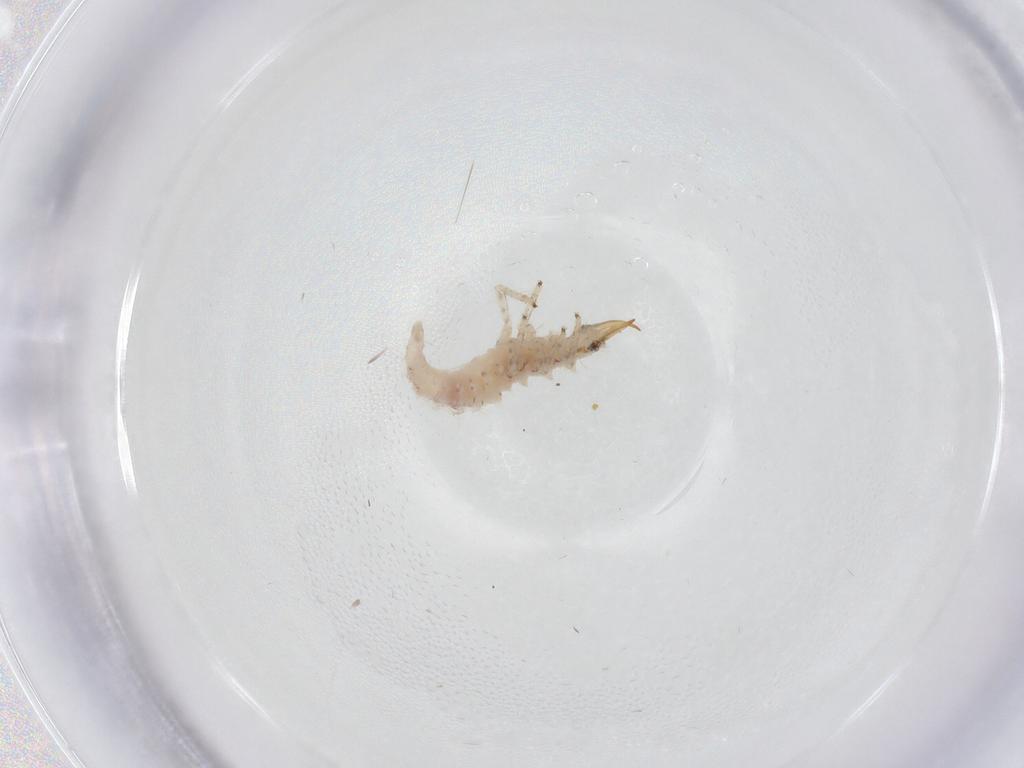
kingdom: Animalia
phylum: Arthropoda
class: Insecta
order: Neuroptera
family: Chrysopidae
